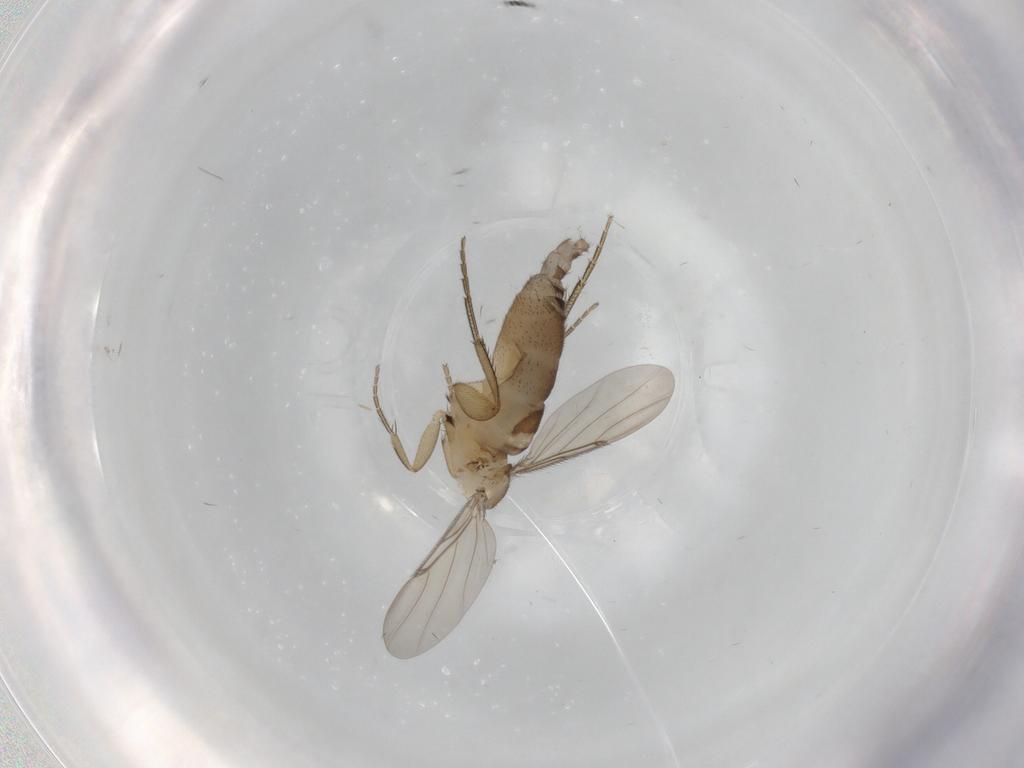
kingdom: Animalia
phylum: Arthropoda
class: Insecta
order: Diptera
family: Phoridae
